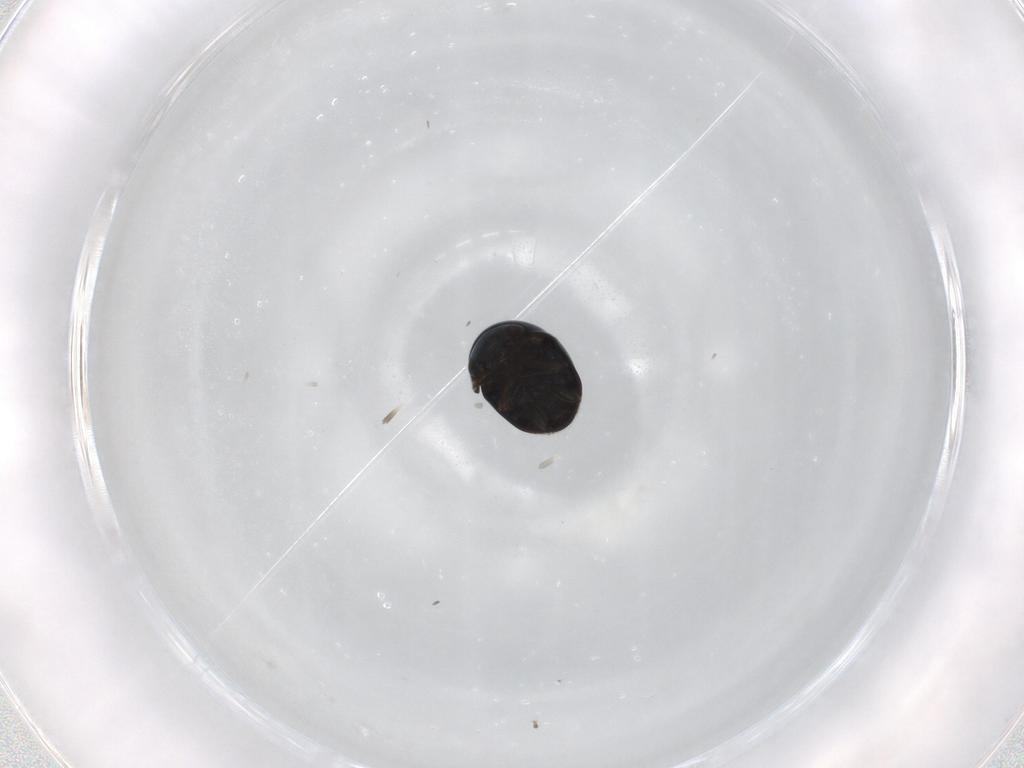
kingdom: Animalia
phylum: Arthropoda
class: Insecta
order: Coleoptera
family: Cybocephalidae
